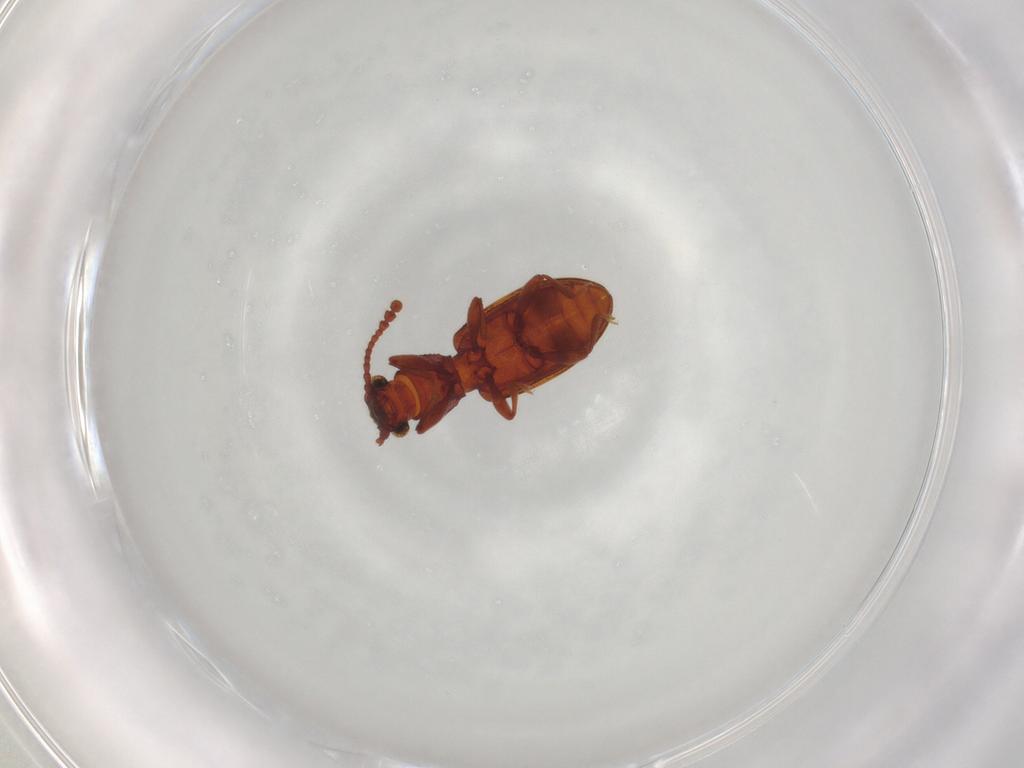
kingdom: Animalia
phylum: Arthropoda
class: Insecta
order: Coleoptera
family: Silvanidae
